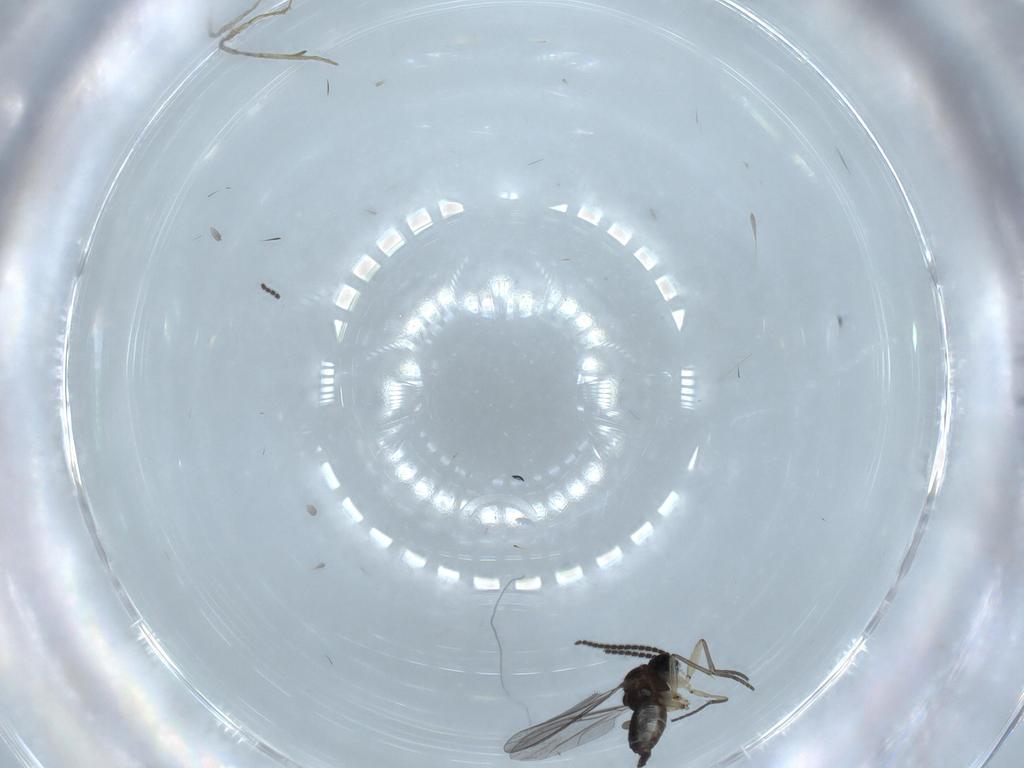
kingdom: Animalia
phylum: Arthropoda
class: Insecta
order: Diptera
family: Sciaridae
